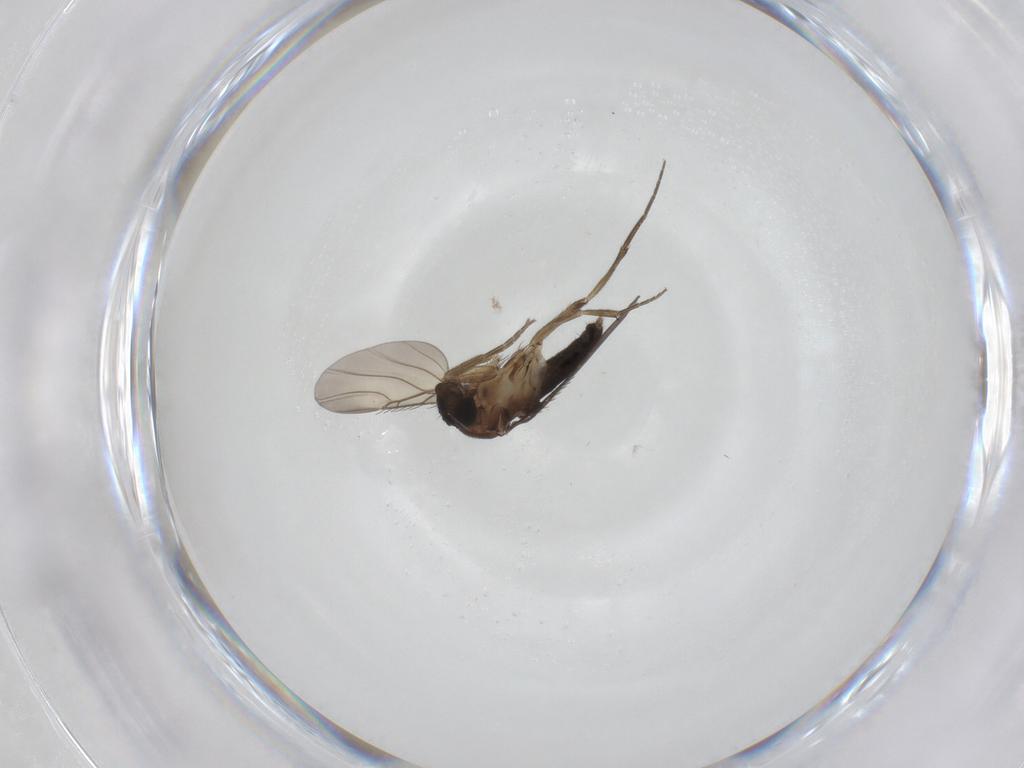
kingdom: Animalia
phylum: Arthropoda
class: Insecta
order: Diptera
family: Phoridae
